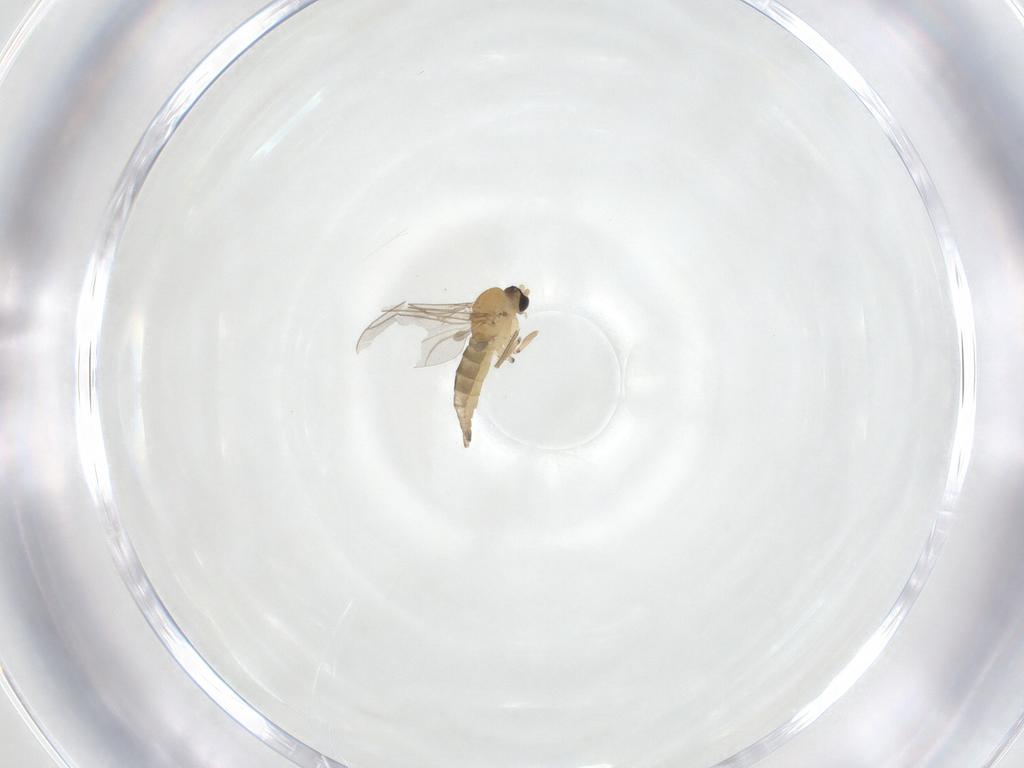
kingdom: Animalia
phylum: Arthropoda
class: Insecta
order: Diptera
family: Sciaridae
